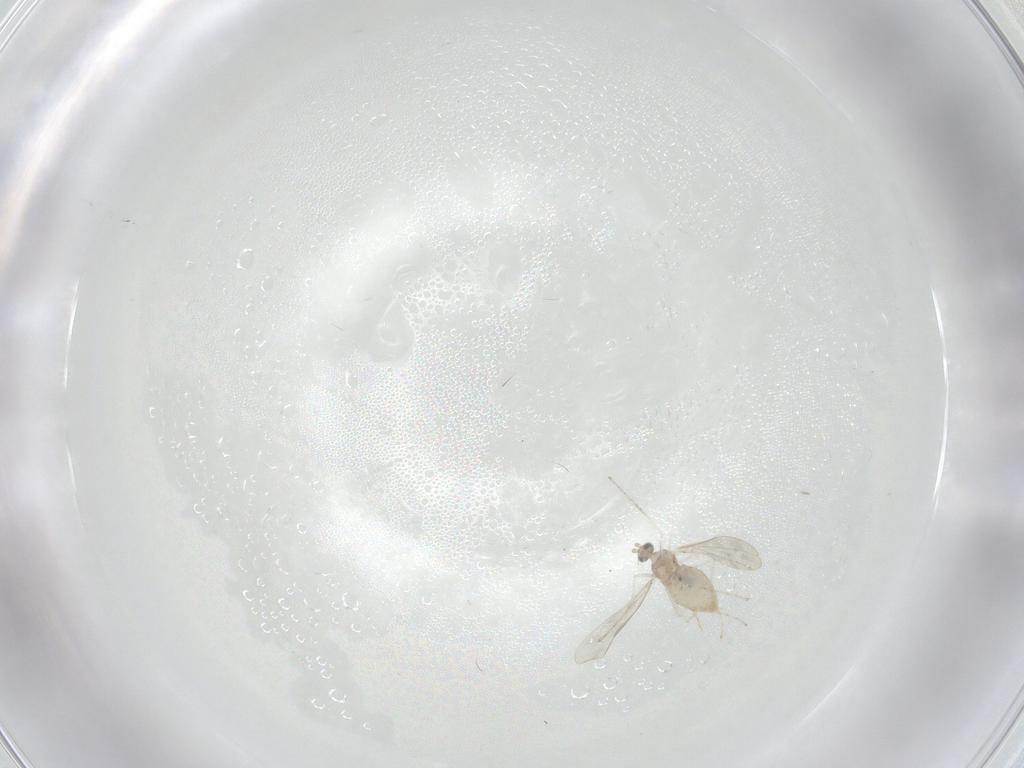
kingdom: Animalia
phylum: Arthropoda
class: Insecta
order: Diptera
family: Cecidomyiidae
